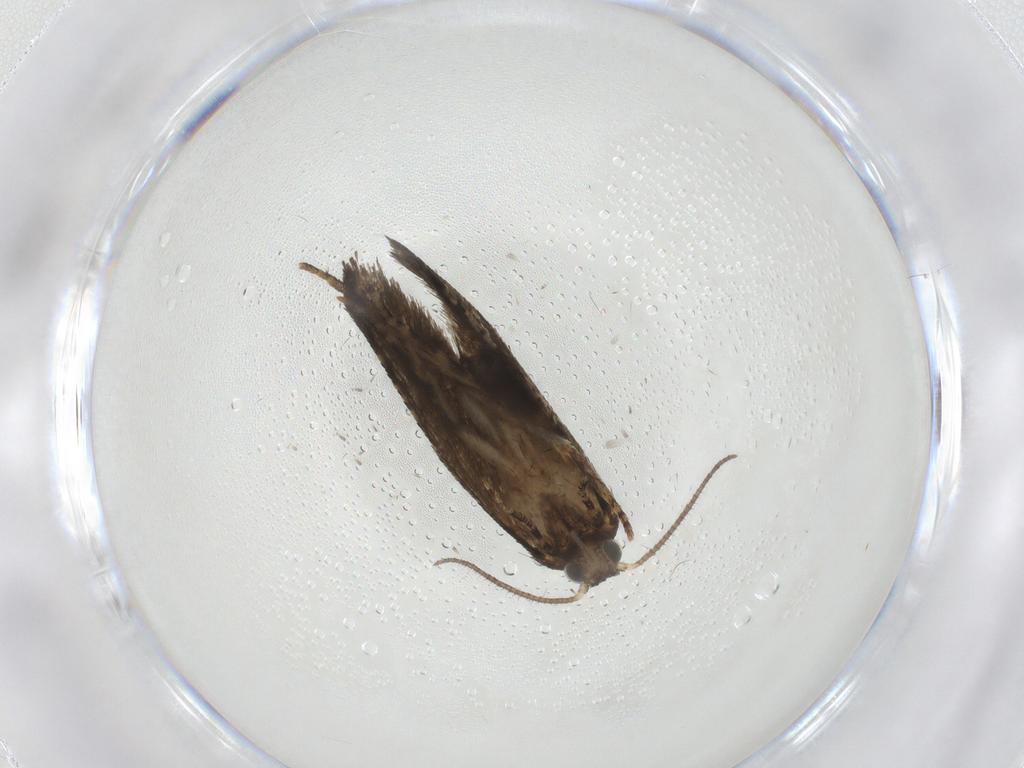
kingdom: Animalia
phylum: Arthropoda
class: Insecta
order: Lepidoptera
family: Tortricidae
